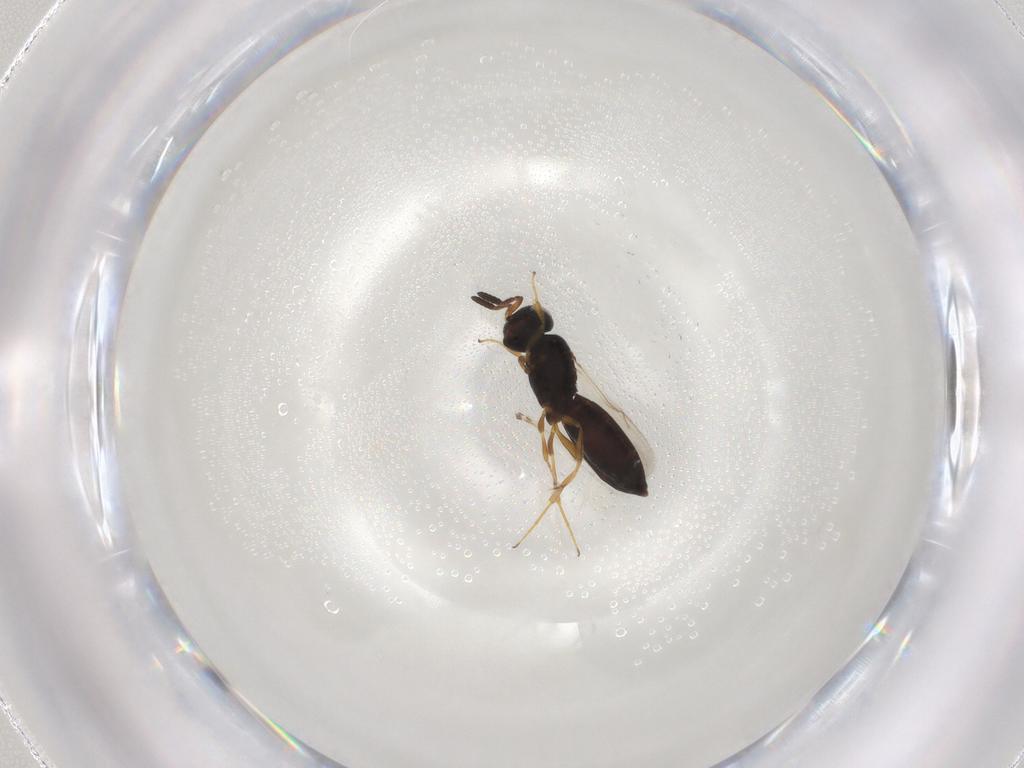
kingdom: Animalia
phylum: Arthropoda
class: Insecta
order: Hymenoptera
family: Scelionidae
